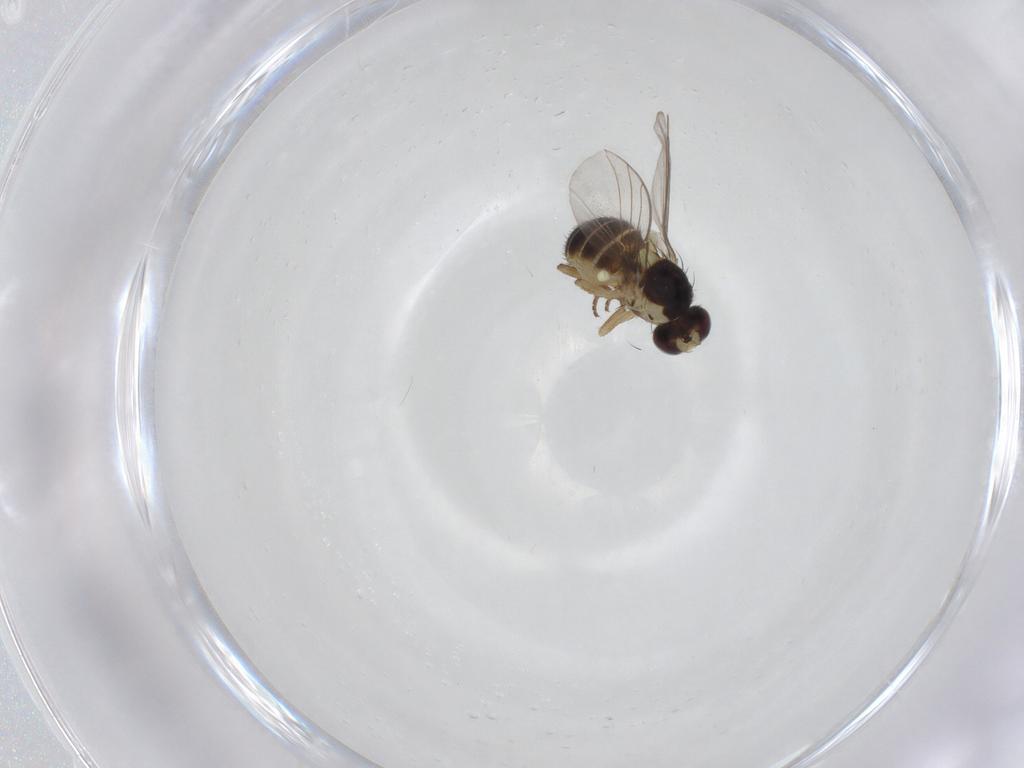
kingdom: Animalia
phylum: Arthropoda
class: Insecta
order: Diptera
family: Agromyzidae
